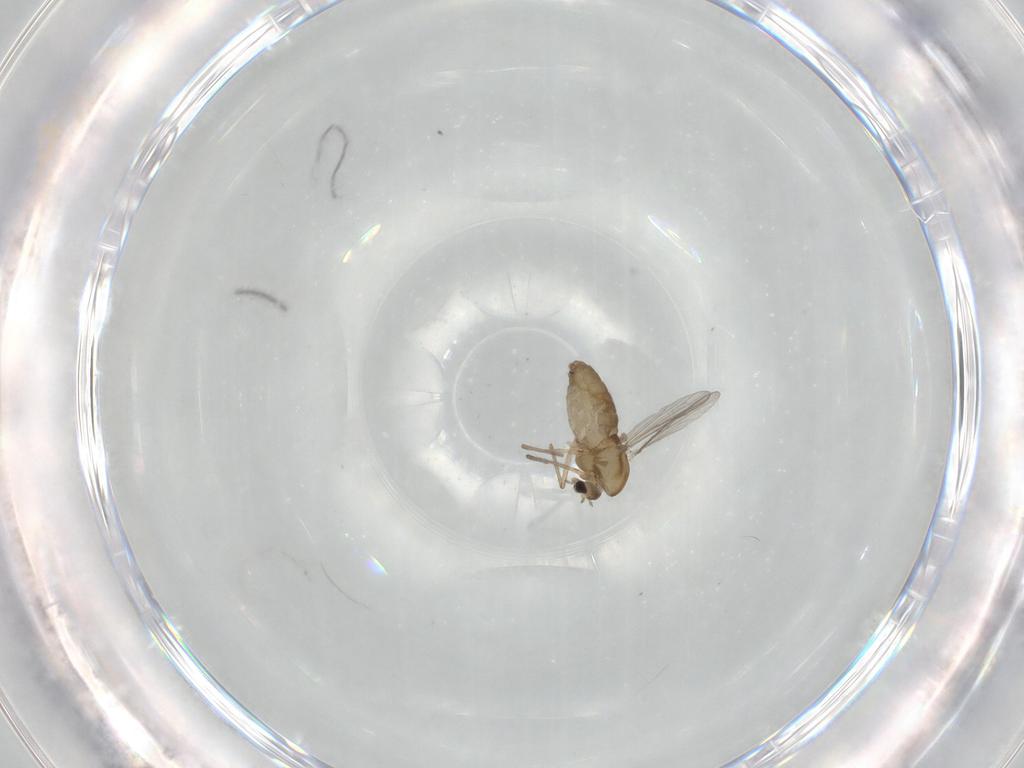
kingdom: Animalia
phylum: Arthropoda
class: Insecta
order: Diptera
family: Chironomidae
